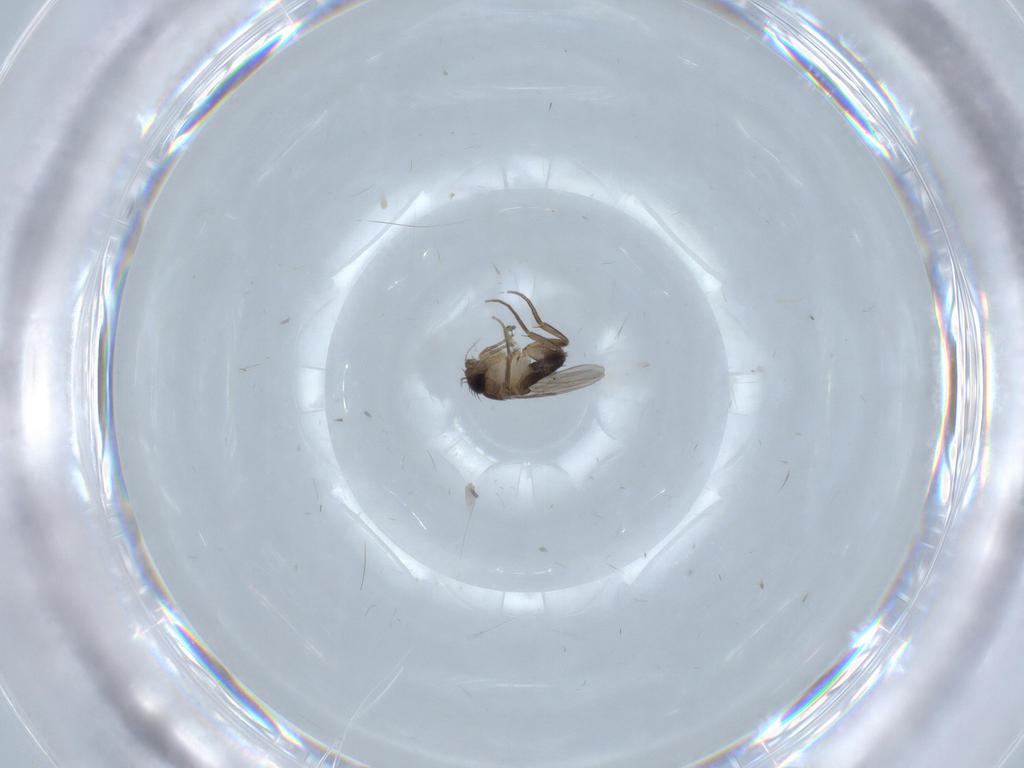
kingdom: Animalia
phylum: Arthropoda
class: Insecta
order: Diptera
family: Phoridae
